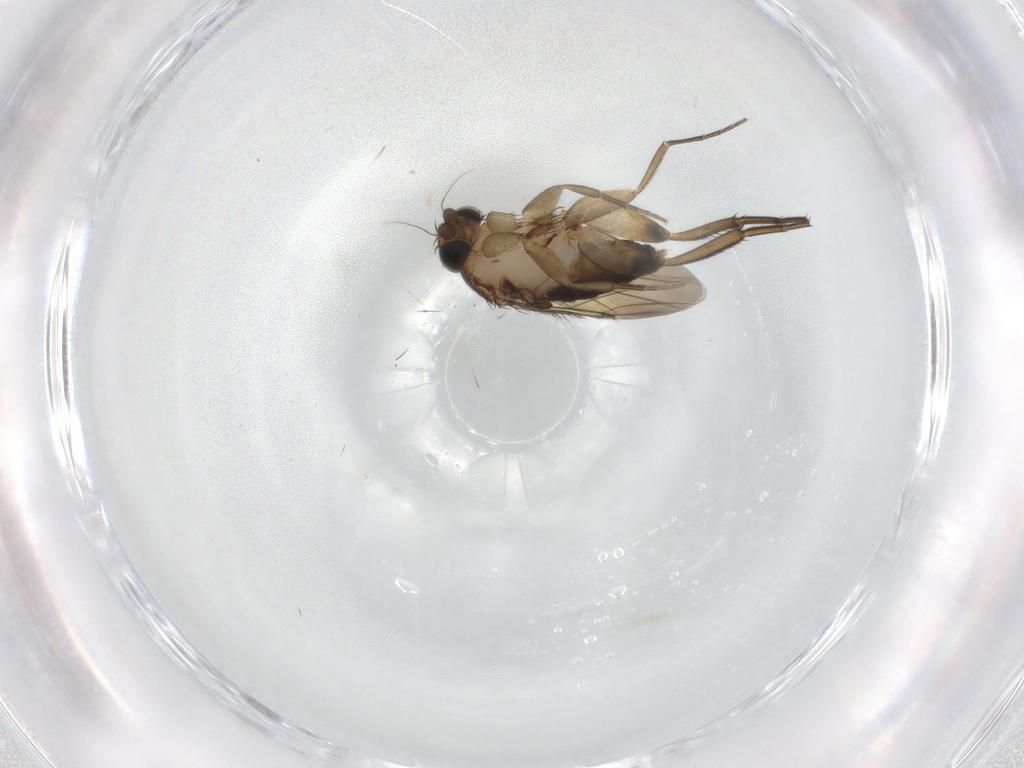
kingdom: Animalia
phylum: Arthropoda
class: Insecta
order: Diptera
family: Phoridae
